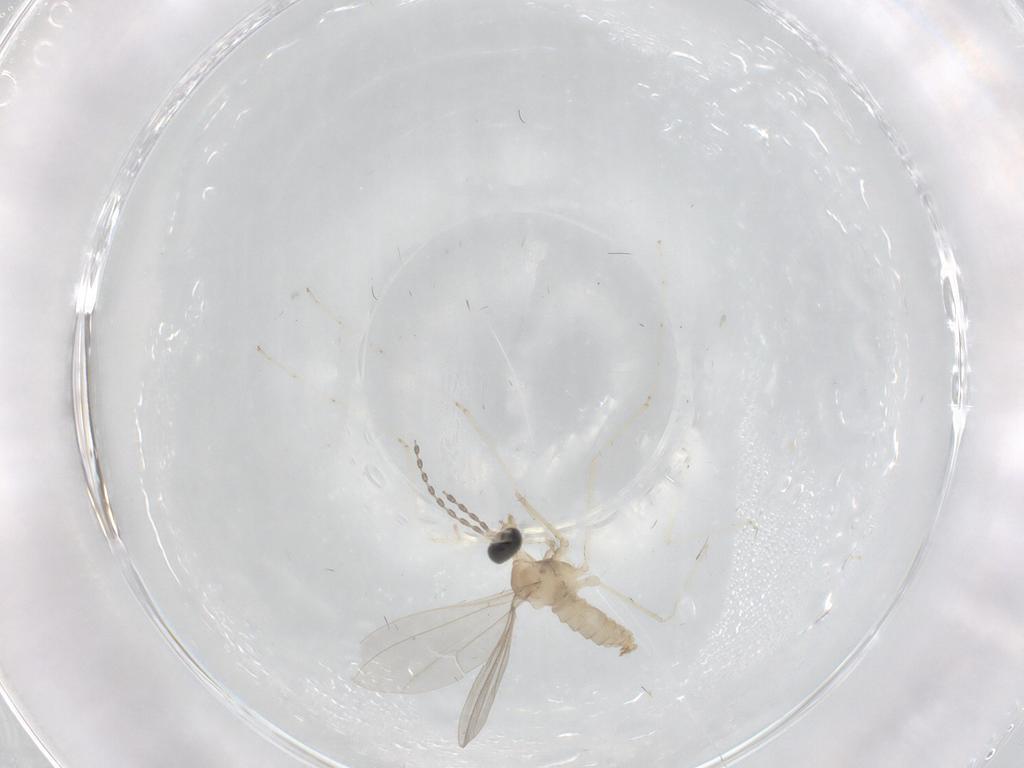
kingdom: Animalia
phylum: Arthropoda
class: Insecta
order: Diptera
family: Cecidomyiidae
